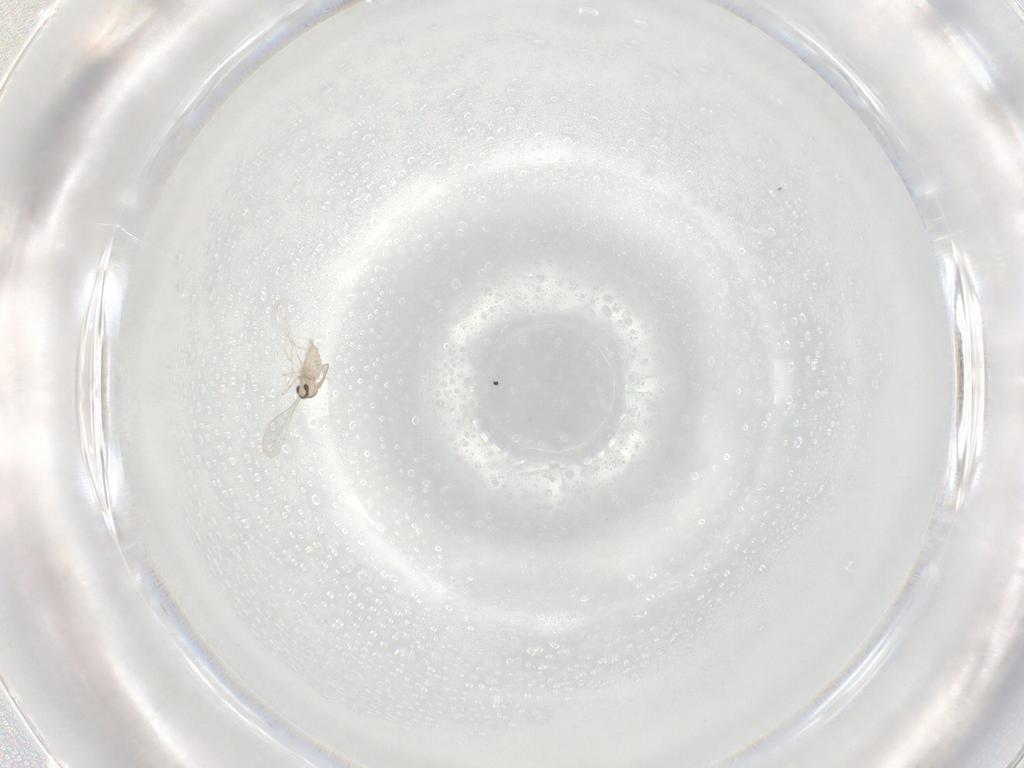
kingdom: Animalia
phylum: Arthropoda
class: Insecta
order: Diptera
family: Cecidomyiidae
